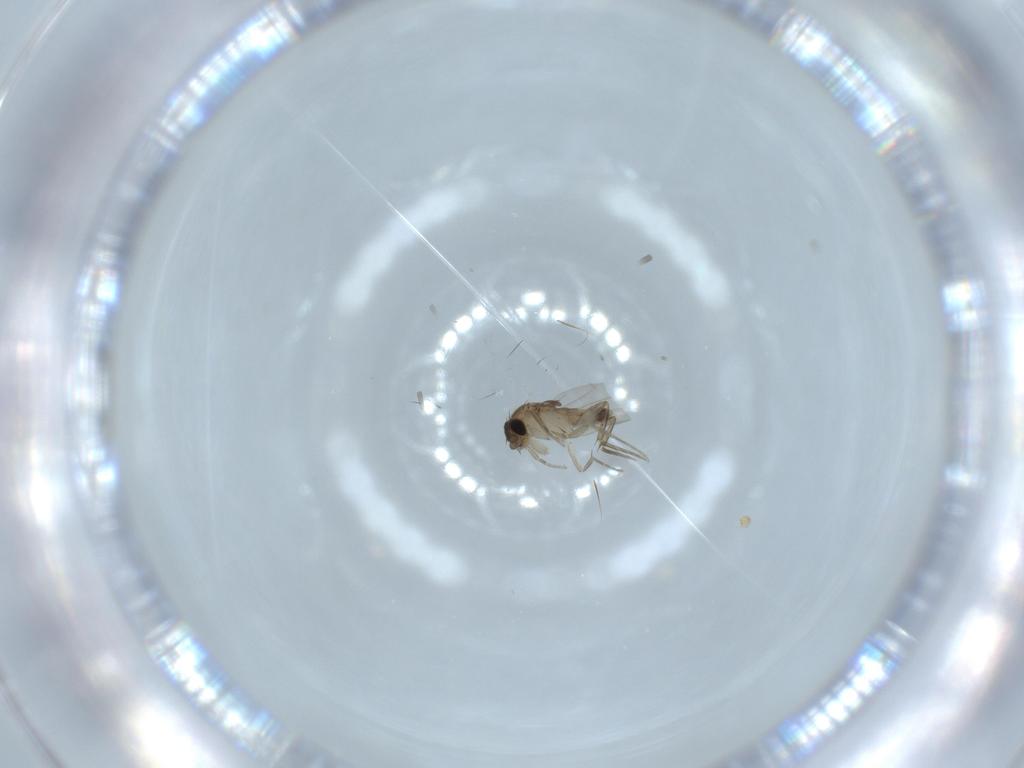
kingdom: Animalia
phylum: Arthropoda
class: Insecta
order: Diptera
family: Phoridae
